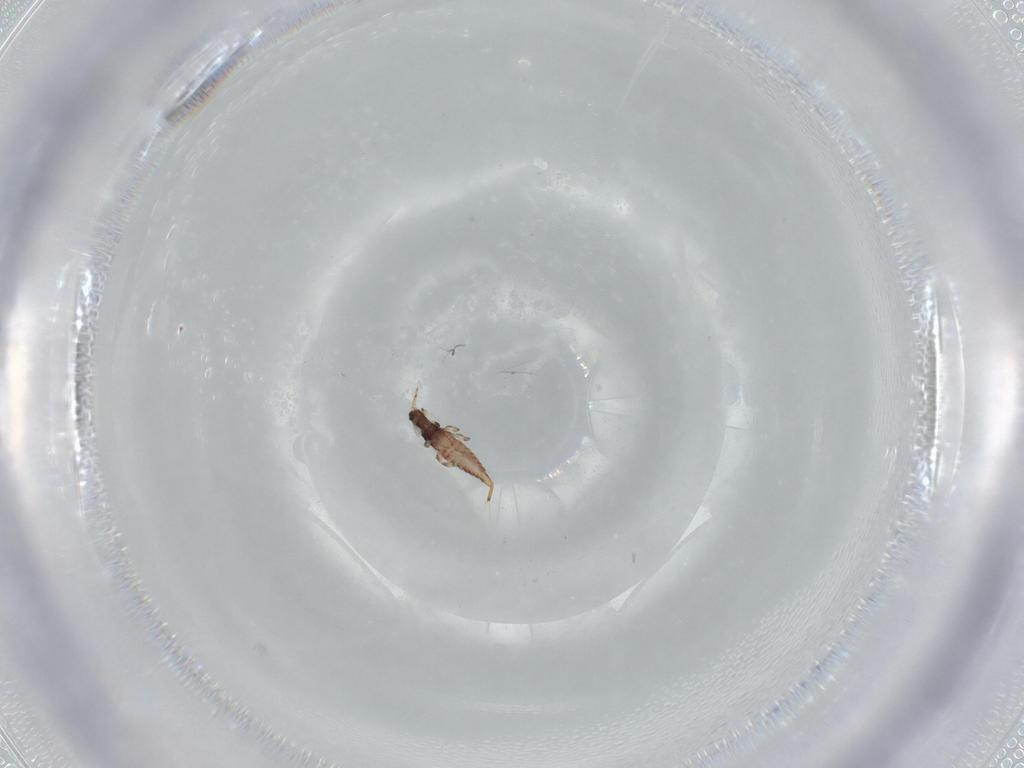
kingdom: Animalia
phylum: Arthropoda
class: Insecta
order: Thysanoptera
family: Phlaeothripidae
